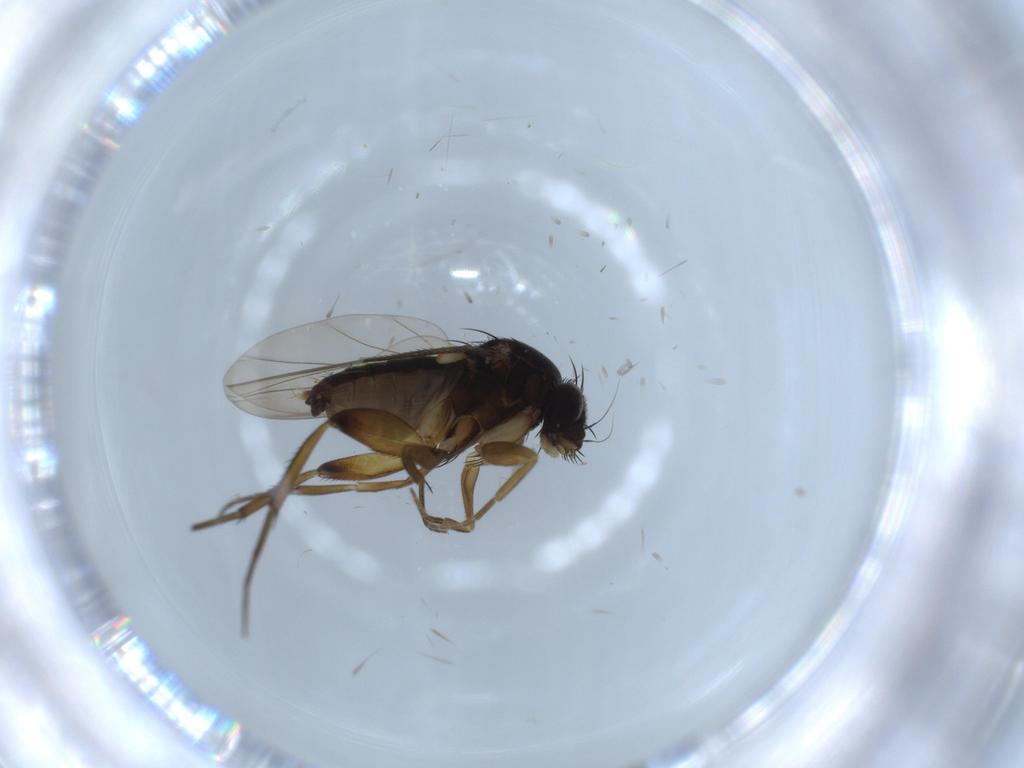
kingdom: Animalia
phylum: Arthropoda
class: Insecta
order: Diptera
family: Phoridae
